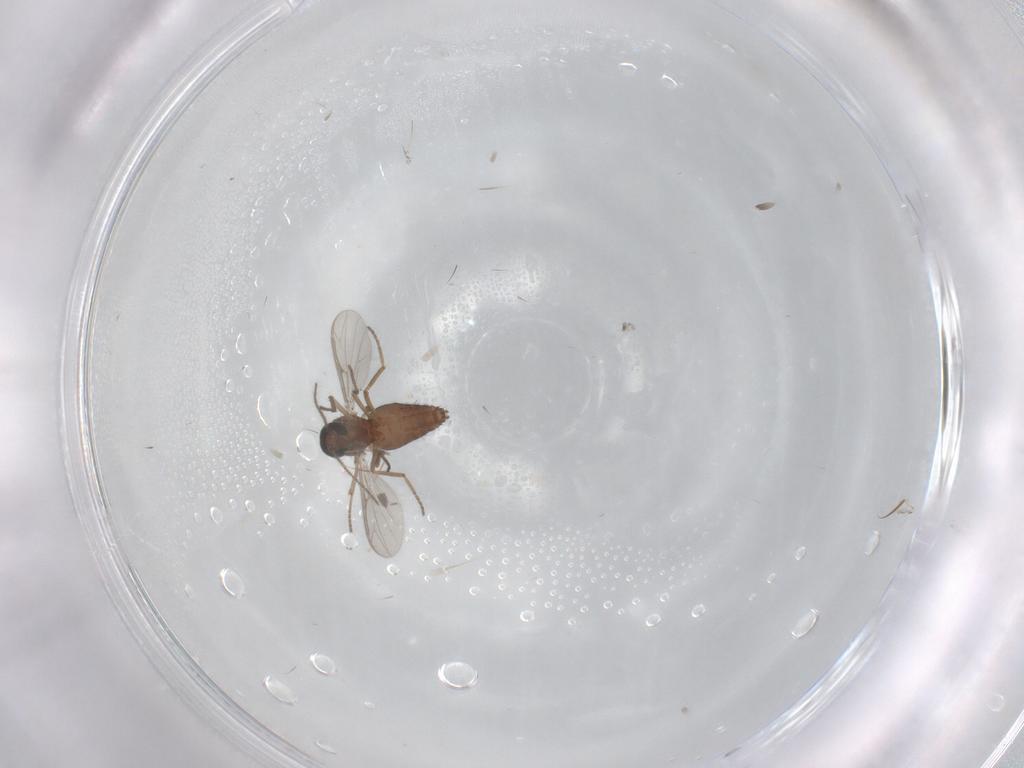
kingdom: Animalia
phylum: Arthropoda
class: Insecta
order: Diptera
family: Ceratopogonidae
